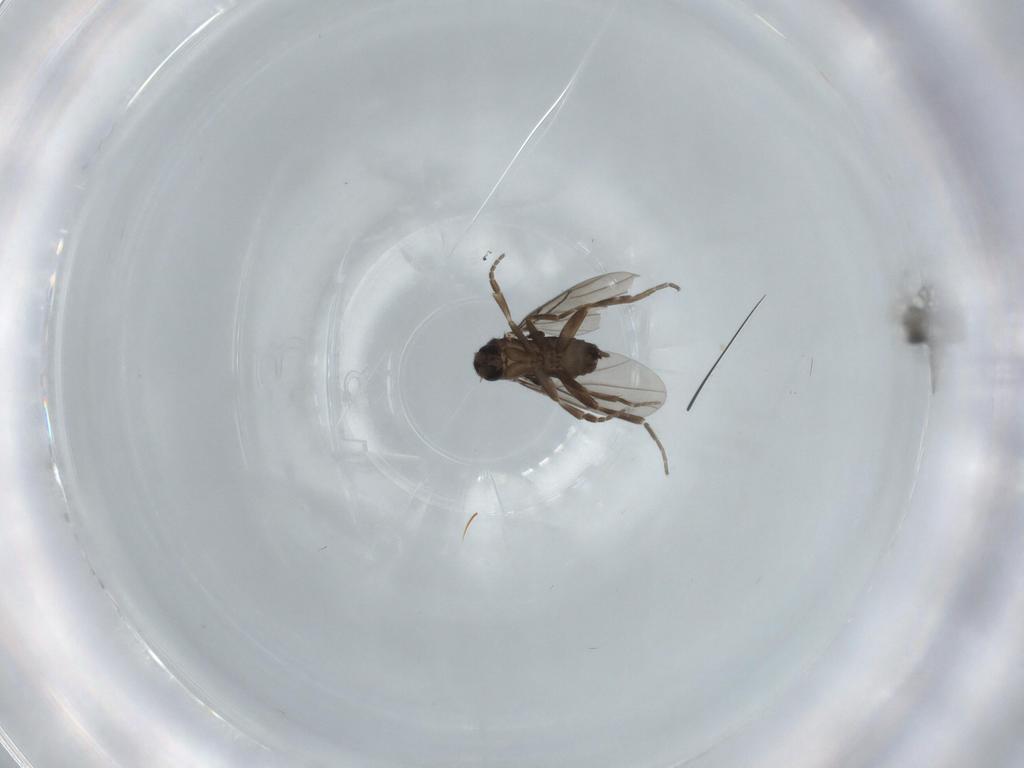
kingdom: Animalia
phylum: Arthropoda
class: Insecta
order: Diptera
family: Phoridae
